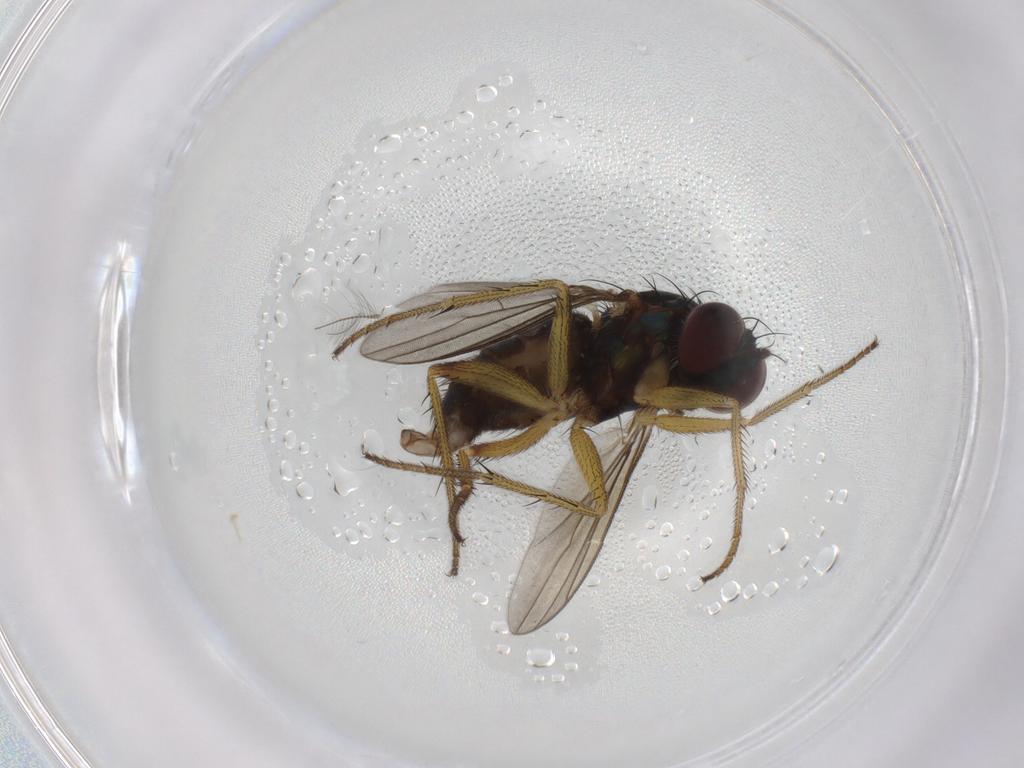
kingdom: Animalia
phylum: Arthropoda
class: Insecta
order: Diptera
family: Dolichopodidae
